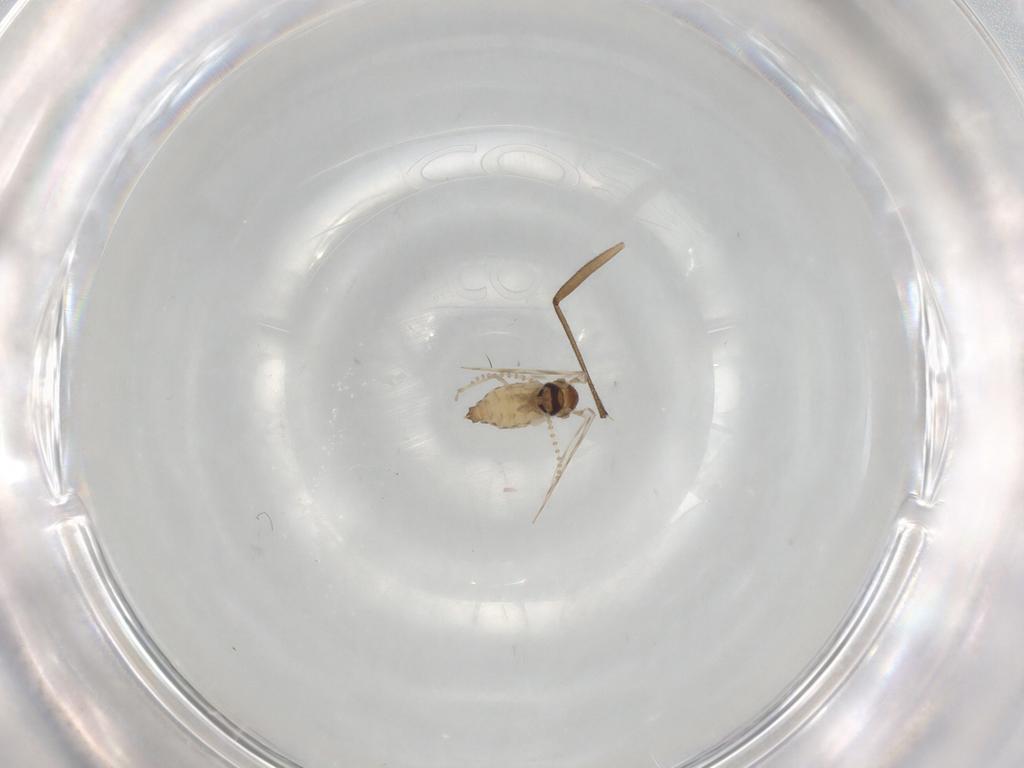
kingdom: Animalia
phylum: Arthropoda
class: Insecta
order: Diptera
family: Psychodidae
